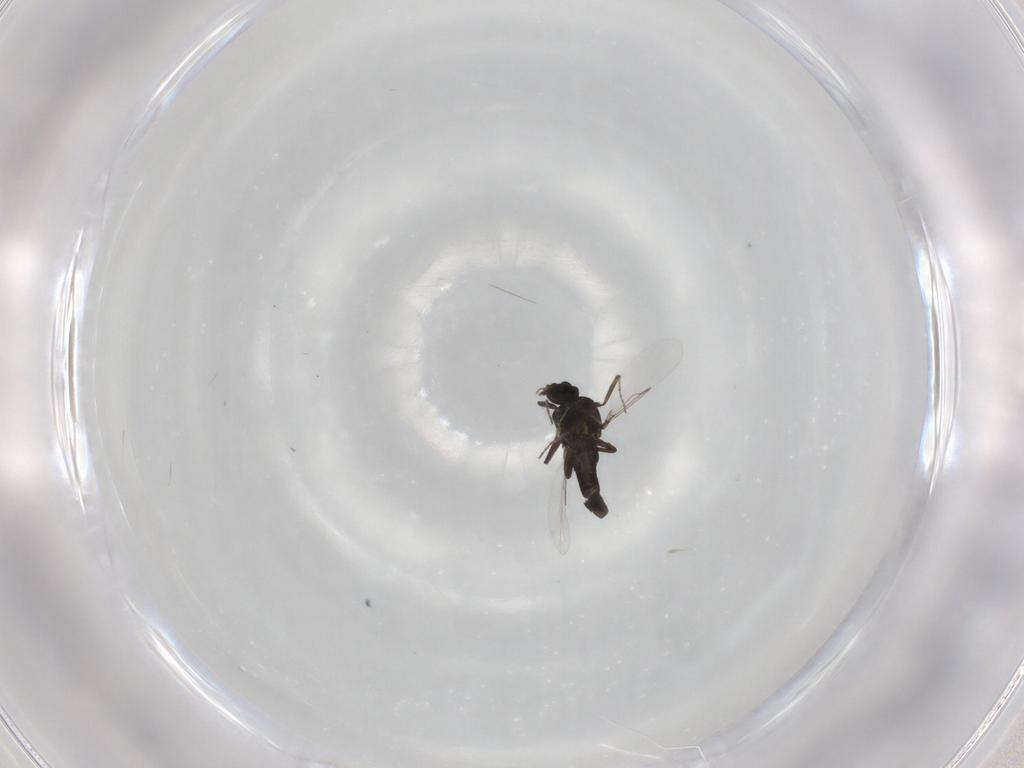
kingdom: Animalia
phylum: Arthropoda
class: Insecta
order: Diptera
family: Ceratopogonidae
